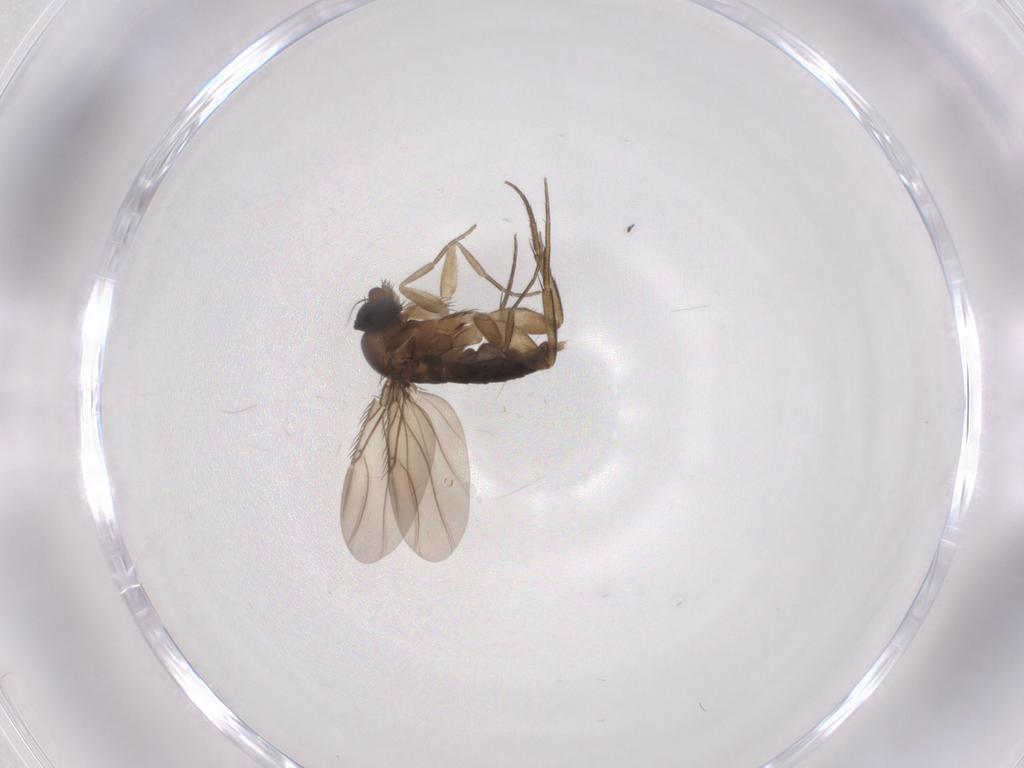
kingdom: Animalia
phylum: Arthropoda
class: Insecta
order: Diptera
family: Chironomidae
